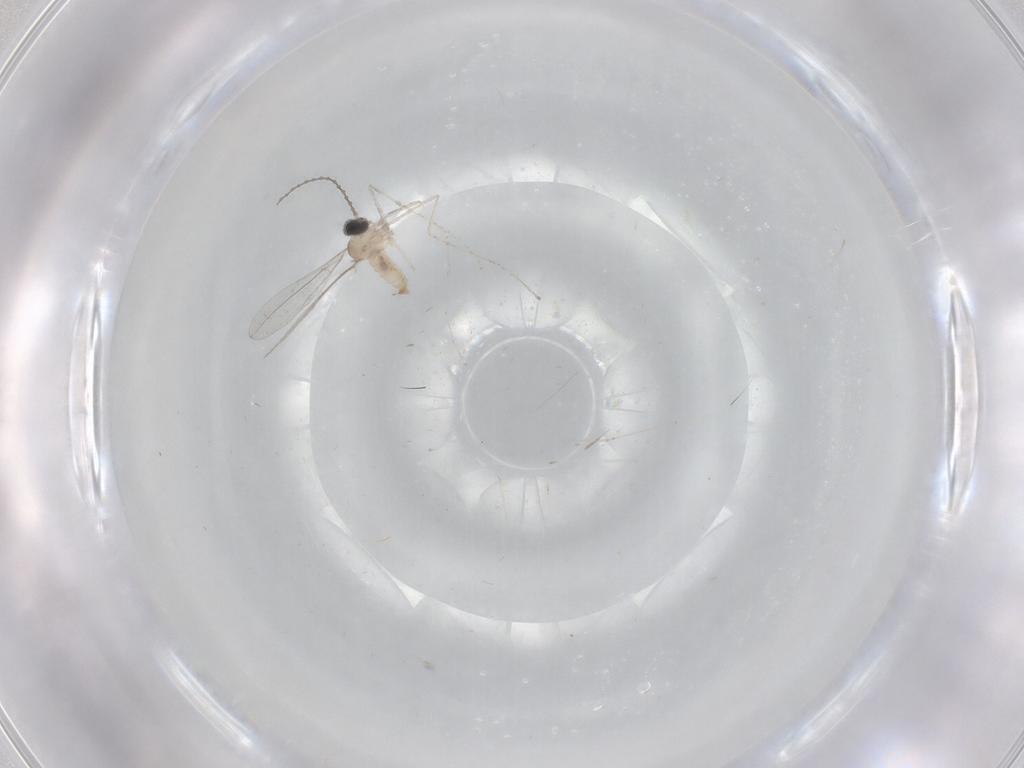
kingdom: Animalia
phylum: Arthropoda
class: Insecta
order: Diptera
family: Cecidomyiidae
